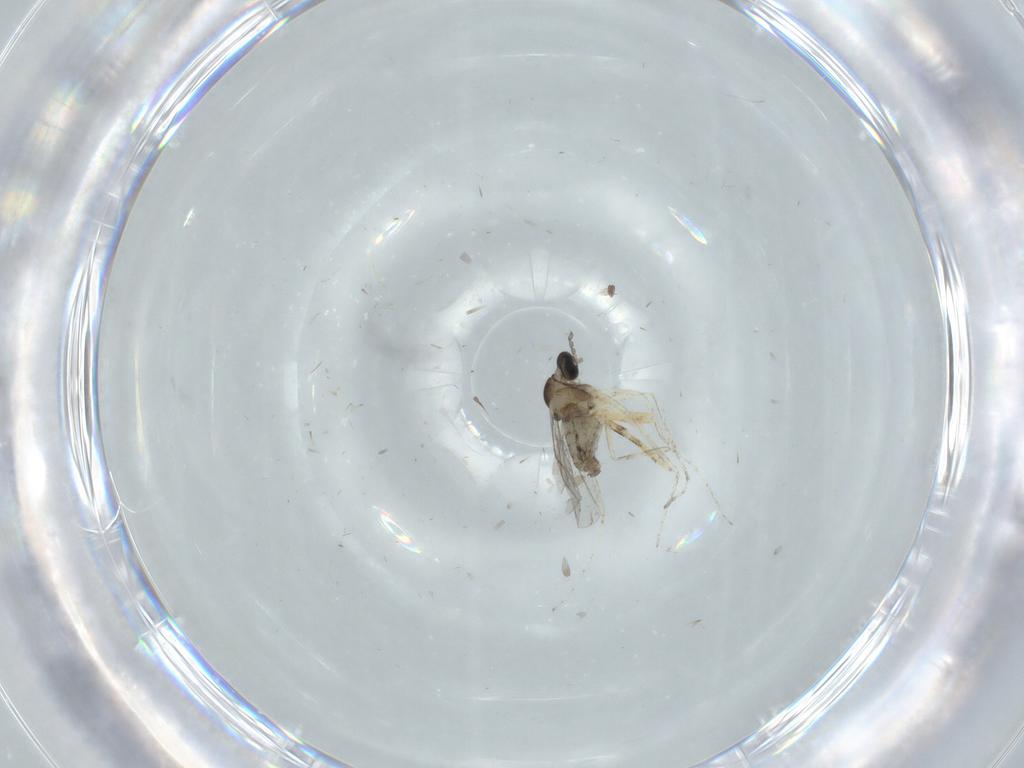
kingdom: Animalia
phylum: Arthropoda
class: Insecta
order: Diptera
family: Cecidomyiidae
